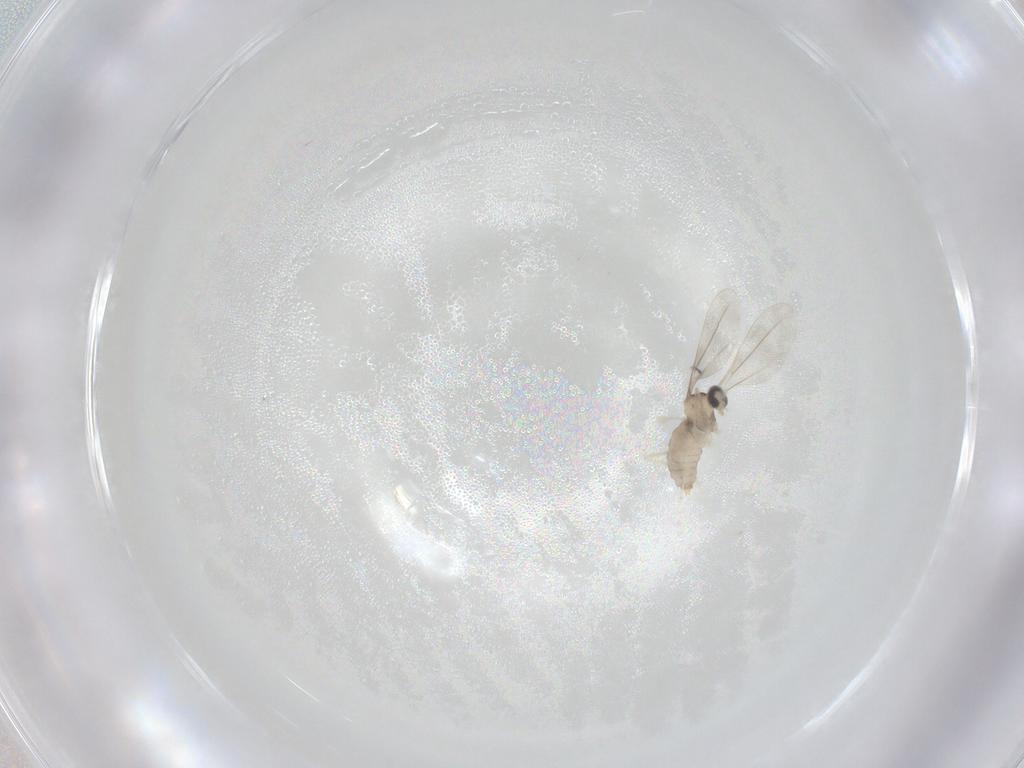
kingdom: Animalia
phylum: Arthropoda
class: Insecta
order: Diptera
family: Cecidomyiidae
